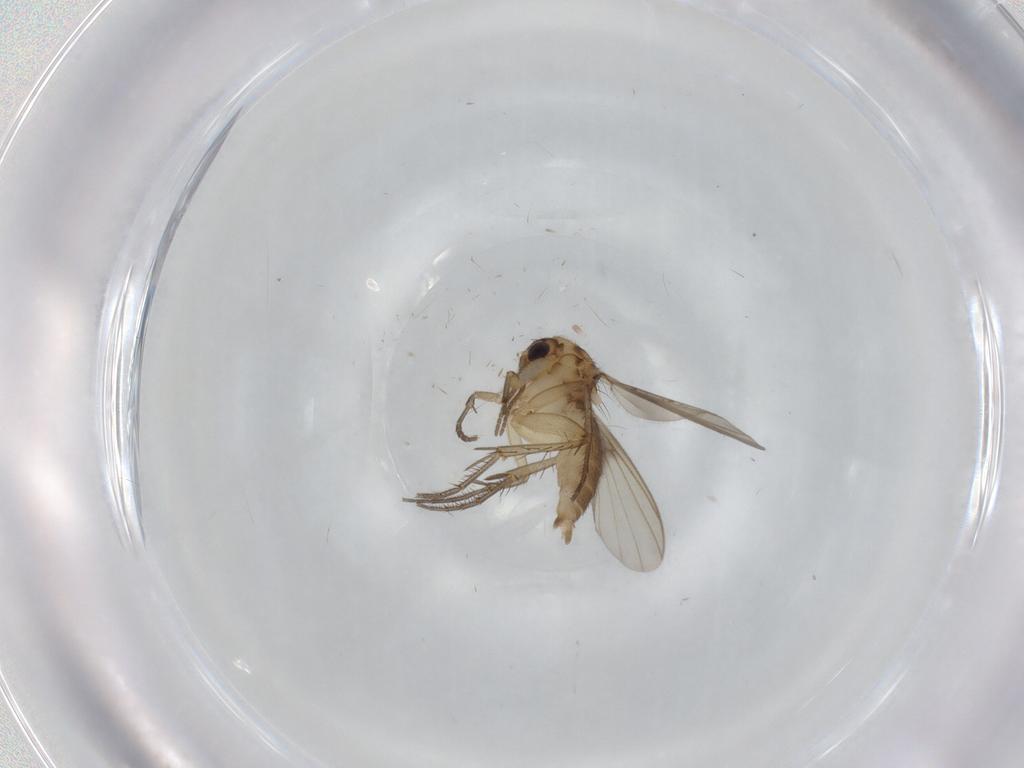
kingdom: Animalia
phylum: Arthropoda
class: Insecta
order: Diptera
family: Mycetophilidae
